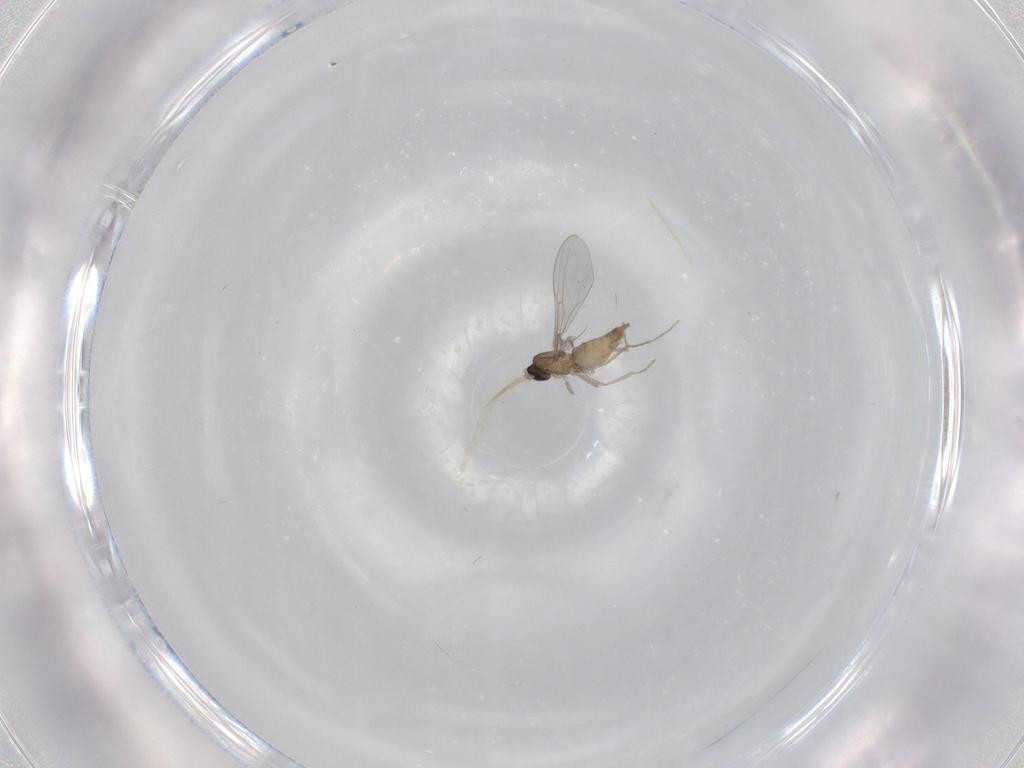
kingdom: Animalia
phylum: Arthropoda
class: Insecta
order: Diptera
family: Cecidomyiidae
